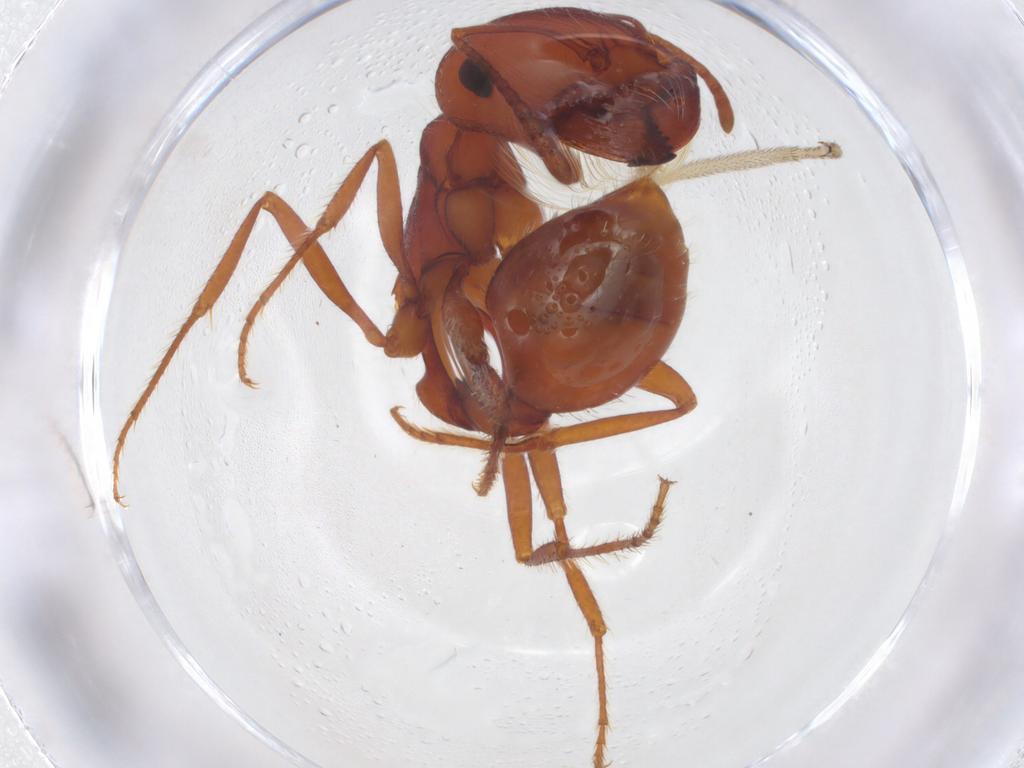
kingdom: Animalia
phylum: Arthropoda
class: Insecta
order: Hymenoptera
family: Formicidae
